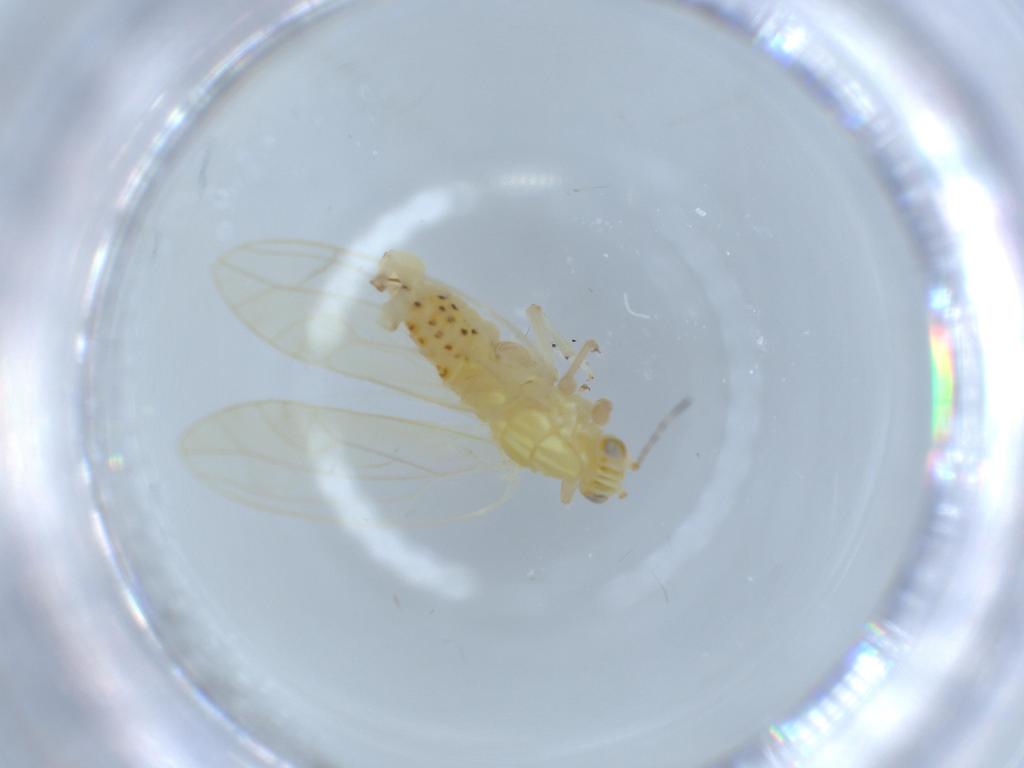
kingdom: Animalia
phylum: Arthropoda
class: Insecta
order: Hemiptera
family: Triozidae
